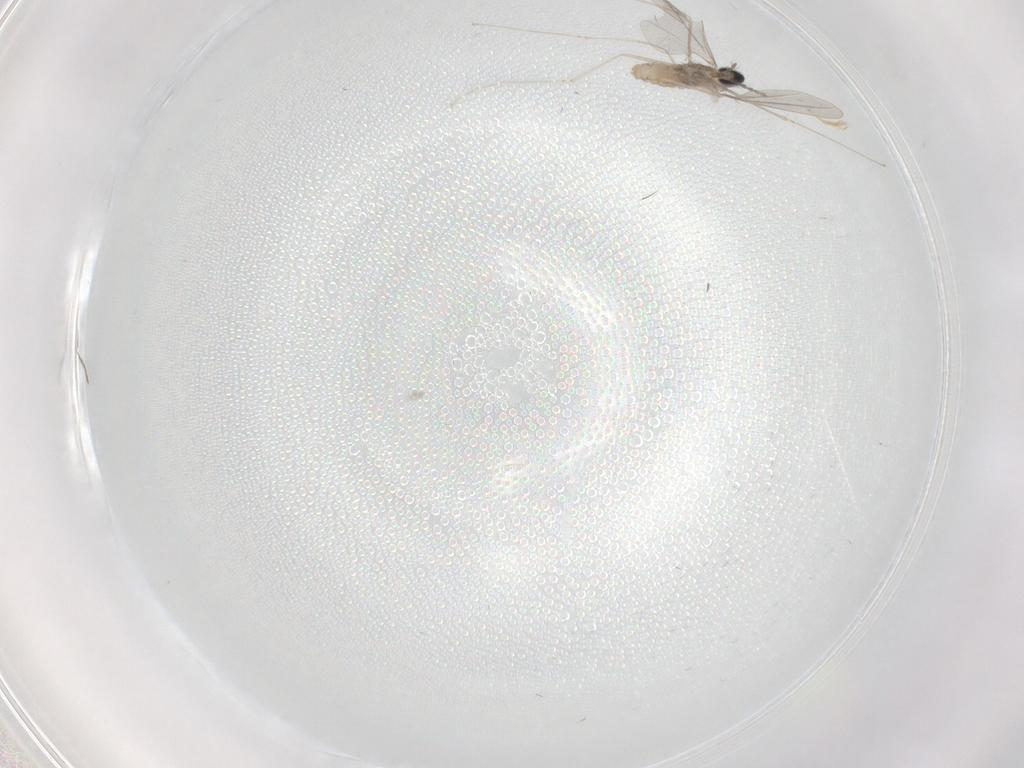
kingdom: Animalia
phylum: Arthropoda
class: Insecta
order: Diptera
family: Cecidomyiidae
